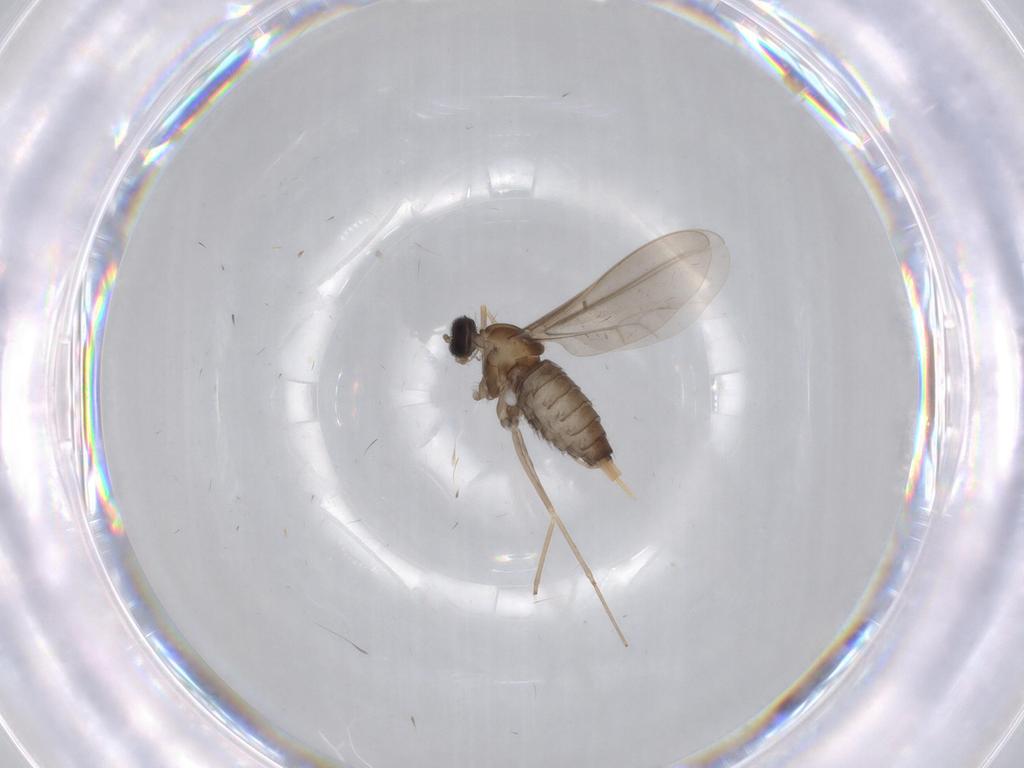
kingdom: Animalia
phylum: Arthropoda
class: Insecta
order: Diptera
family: Cecidomyiidae
